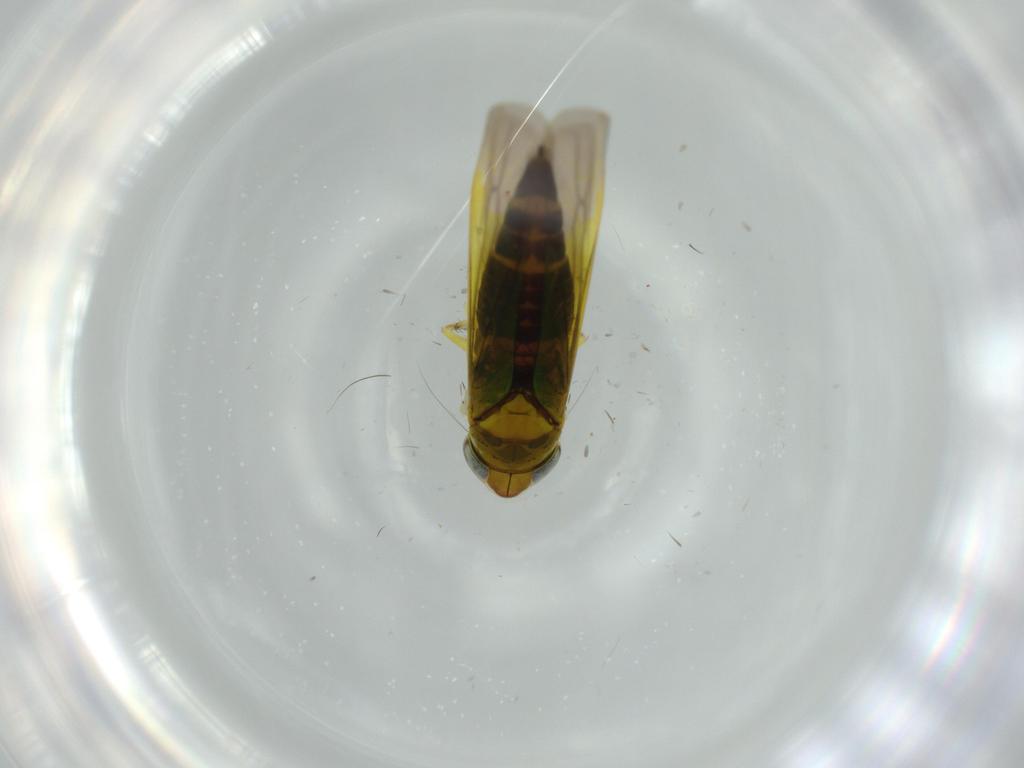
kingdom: Animalia
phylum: Arthropoda
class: Insecta
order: Hemiptera
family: Cicadellidae
